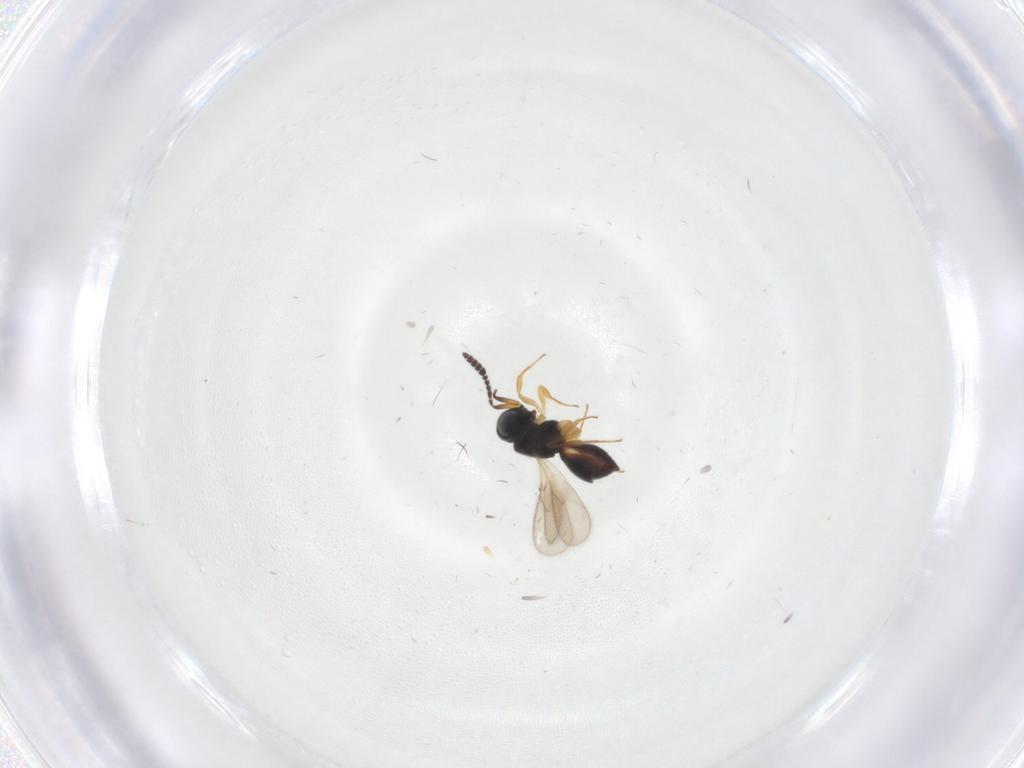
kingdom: Animalia
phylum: Arthropoda
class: Insecta
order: Hymenoptera
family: Scelionidae
